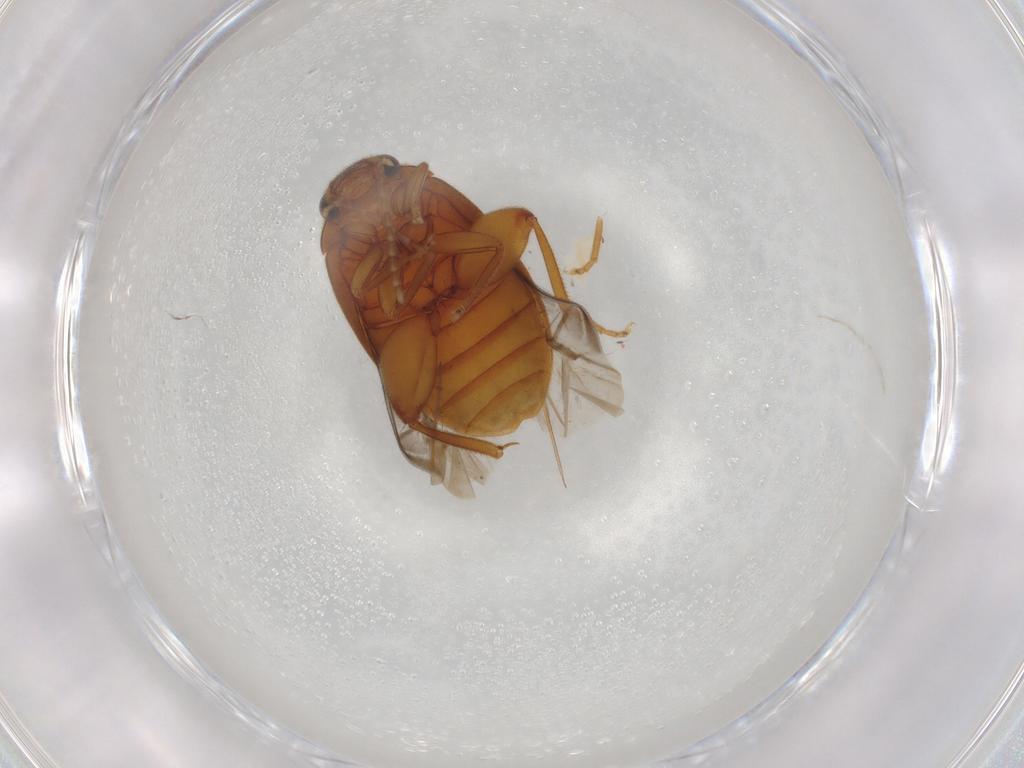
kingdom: Animalia
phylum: Arthropoda
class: Insecta
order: Coleoptera
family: Scirtidae
